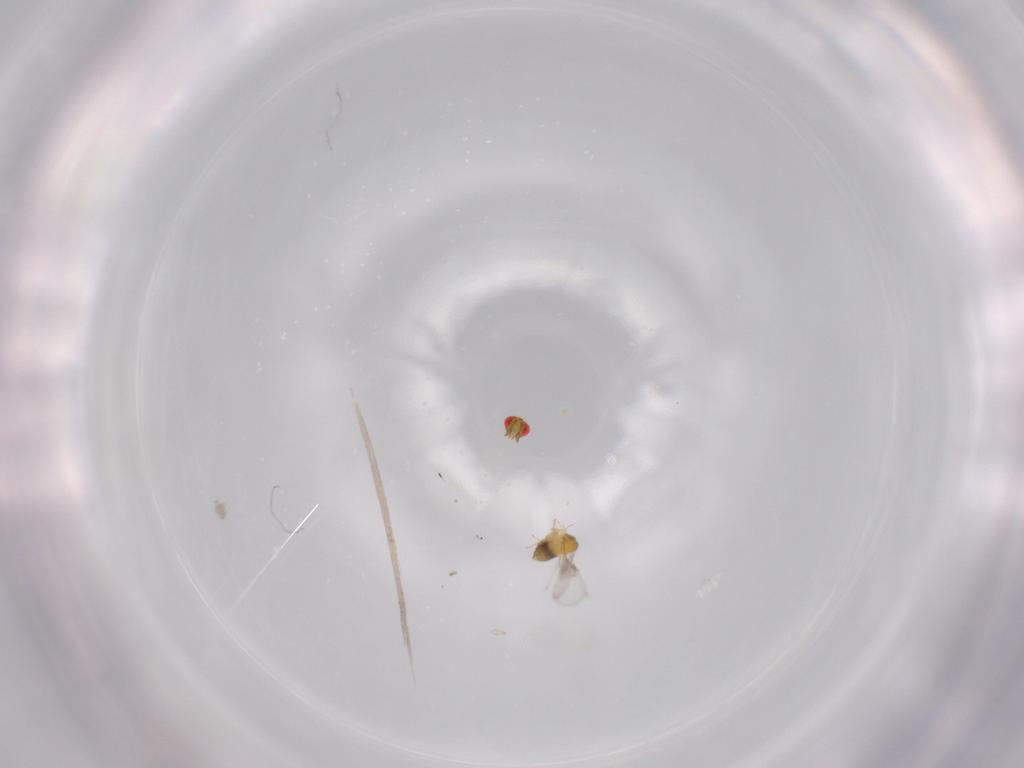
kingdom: Animalia
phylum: Arthropoda
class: Insecta
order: Hymenoptera
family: Trichogrammatidae
